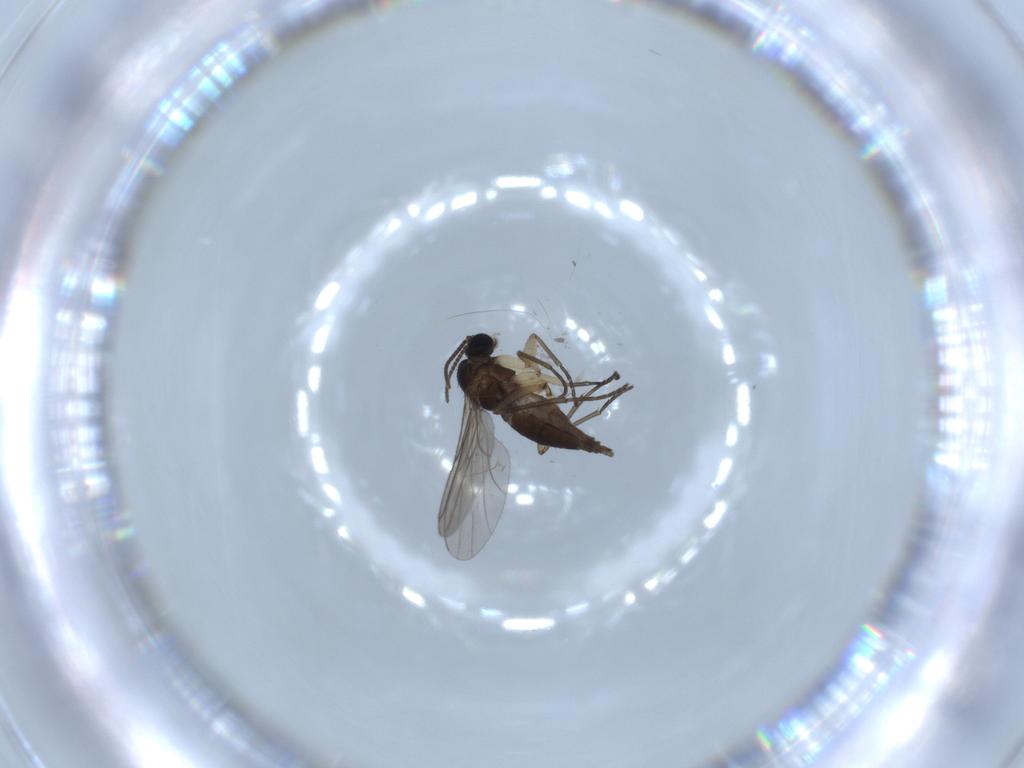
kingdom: Animalia
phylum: Arthropoda
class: Insecta
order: Diptera
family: Sciaridae
